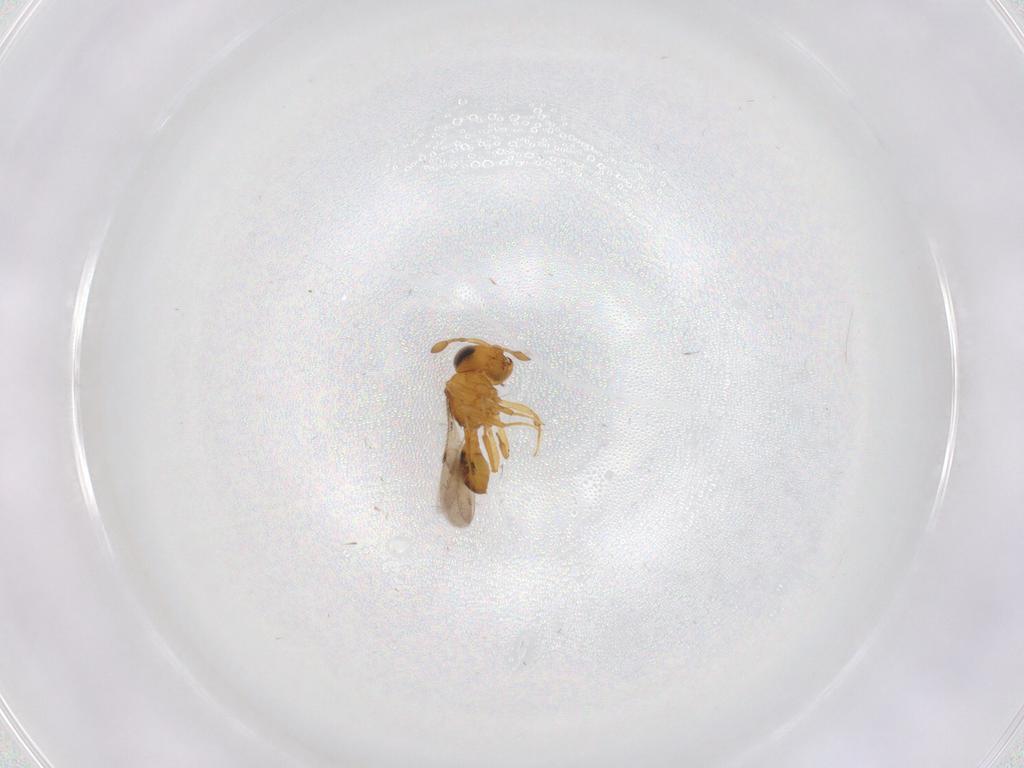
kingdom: Animalia
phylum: Arthropoda
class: Insecta
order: Hymenoptera
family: Scelionidae
